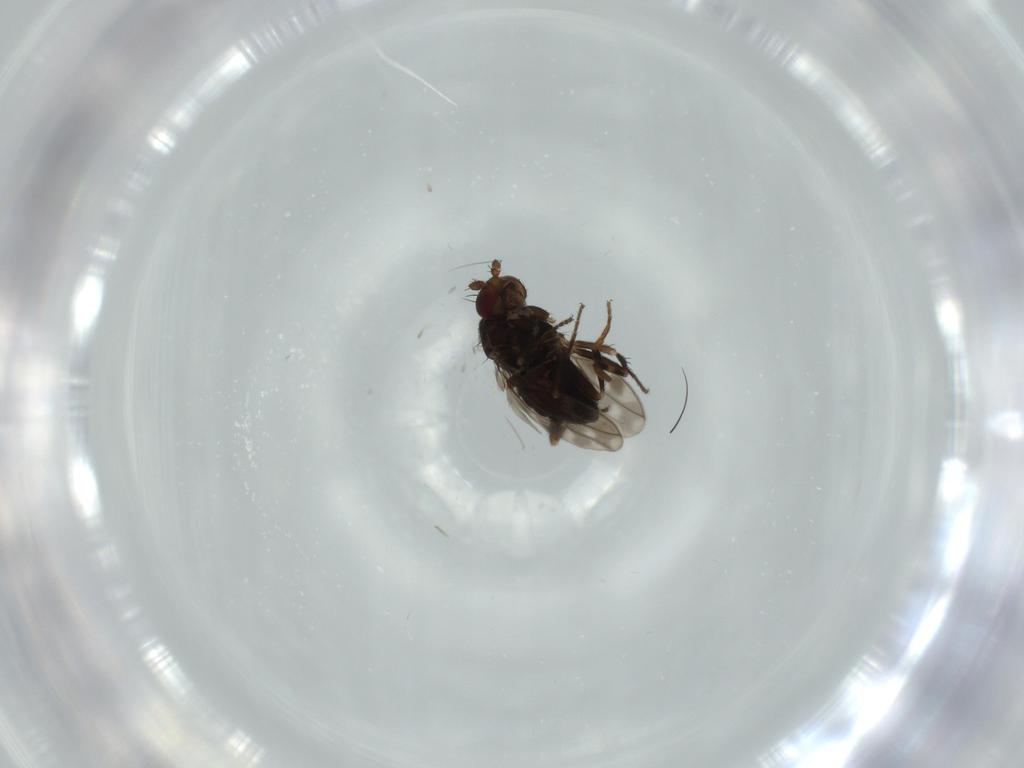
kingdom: Animalia
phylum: Arthropoda
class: Insecta
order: Diptera
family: Sphaeroceridae
